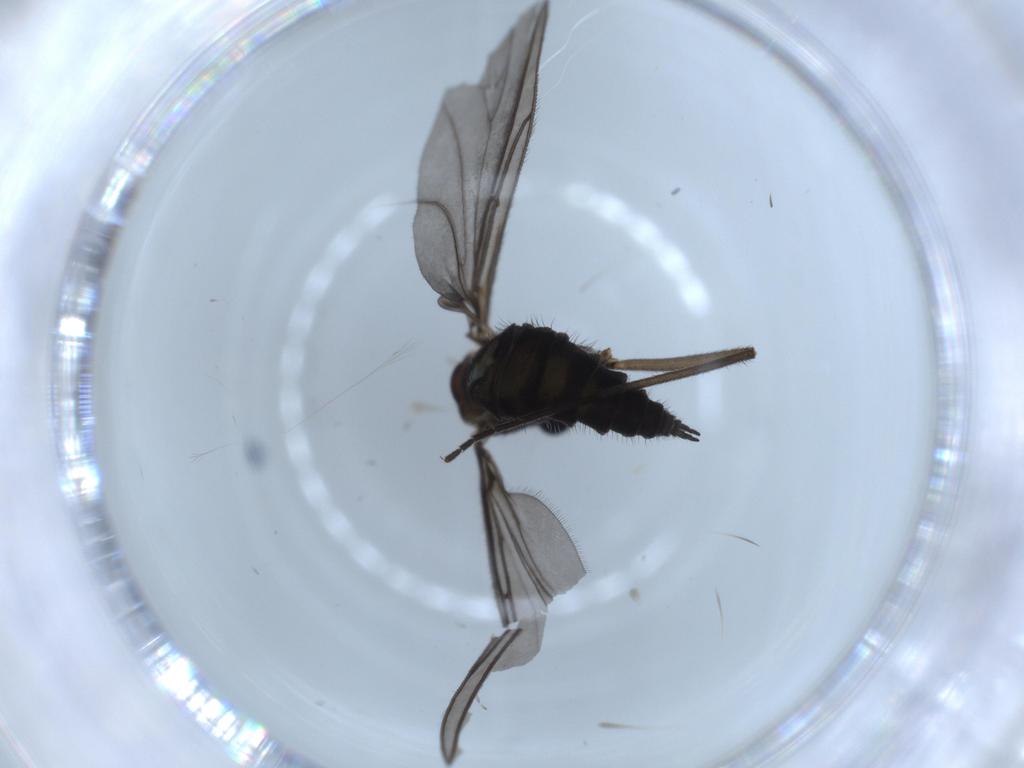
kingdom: Animalia
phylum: Arthropoda
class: Insecta
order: Diptera
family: Sciaridae
